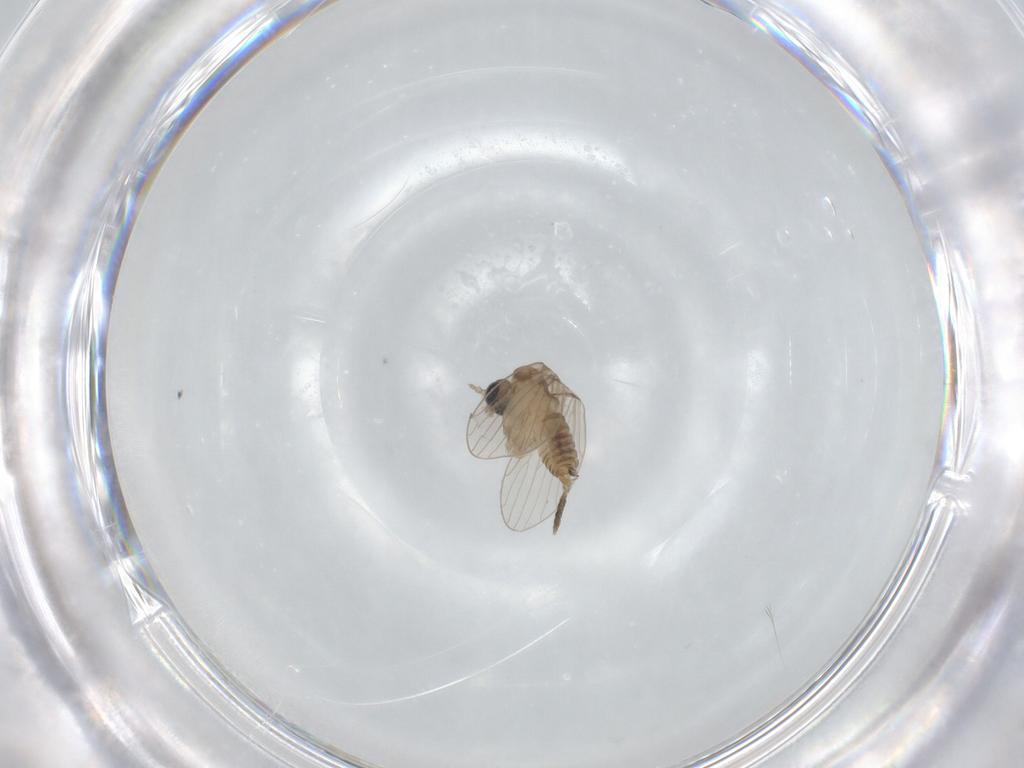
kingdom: Animalia
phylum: Arthropoda
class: Insecta
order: Diptera
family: Psychodidae
